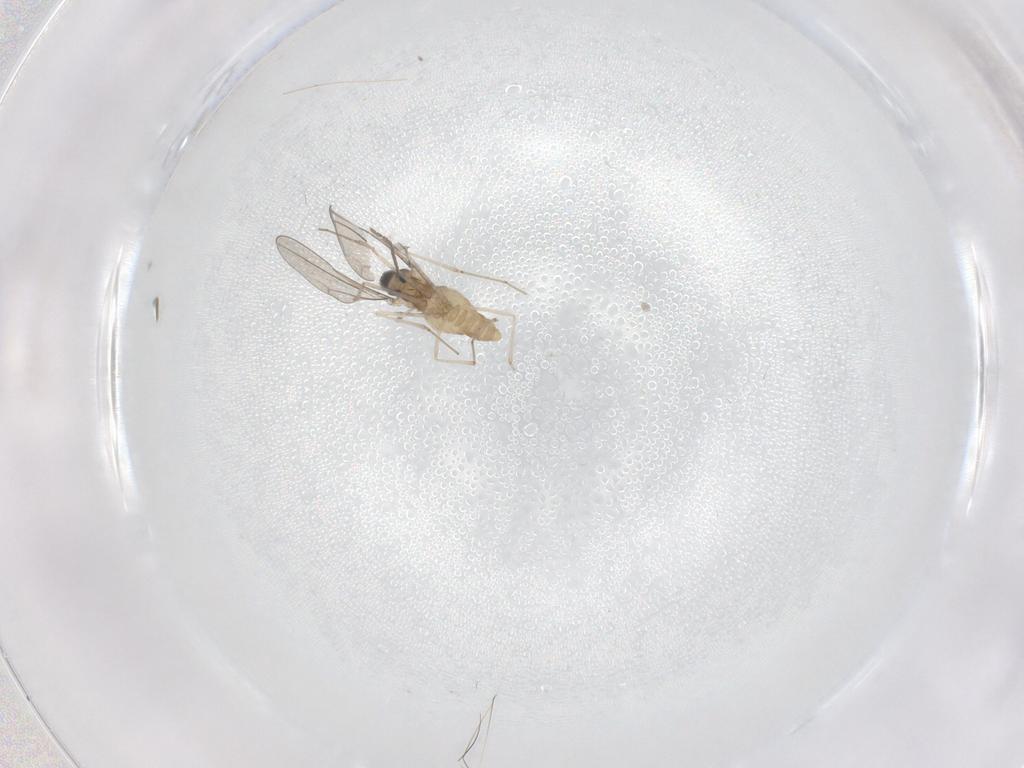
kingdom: Animalia
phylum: Arthropoda
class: Insecta
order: Diptera
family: Cecidomyiidae
